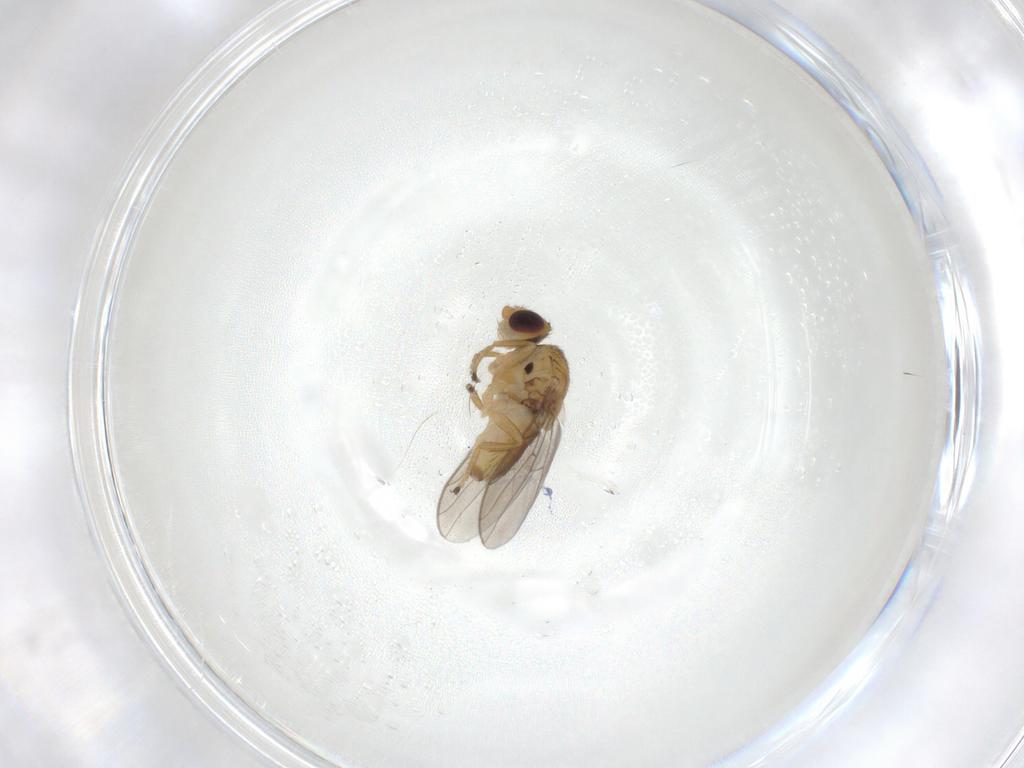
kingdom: Animalia
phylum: Arthropoda
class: Insecta
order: Diptera
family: Chloropidae
